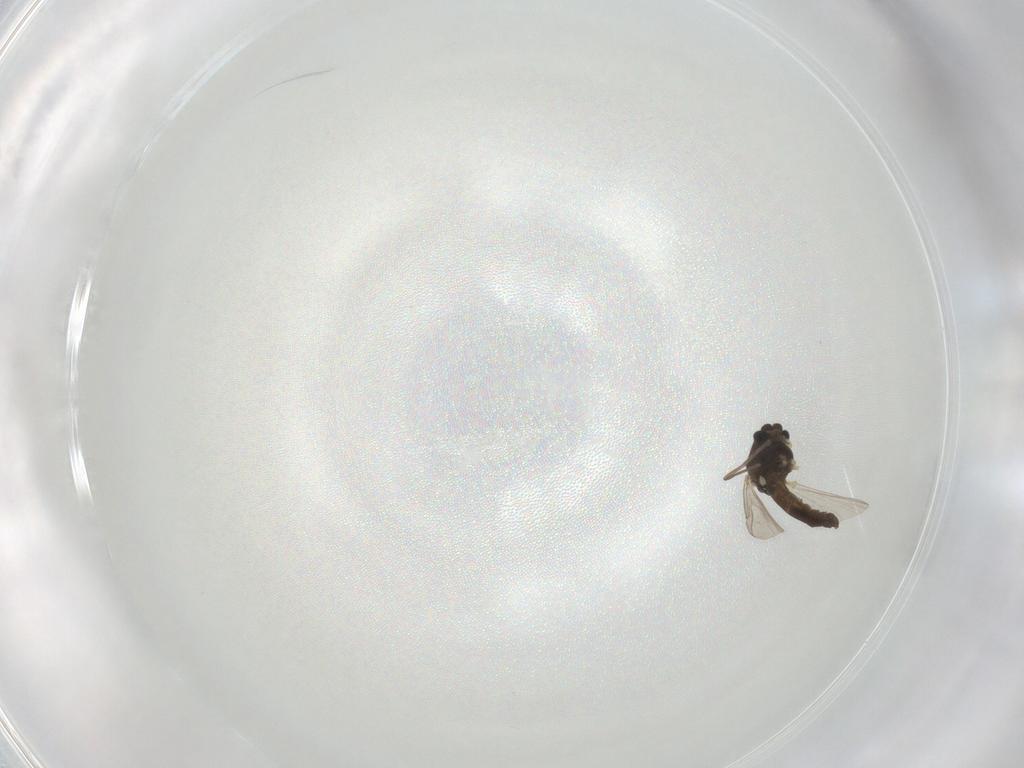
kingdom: Animalia
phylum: Arthropoda
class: Insecta
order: Diptera
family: Chironomidae
